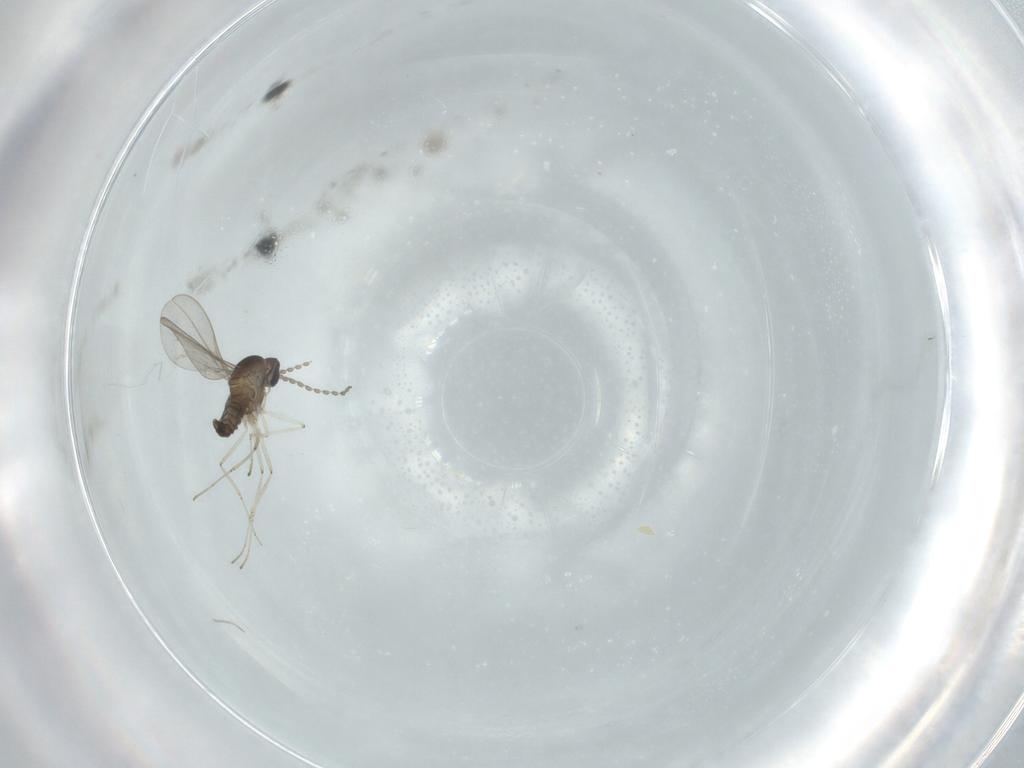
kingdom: Animalia
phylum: Arthropoda
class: Insecta
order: Diptera
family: Cecidomyiidae
